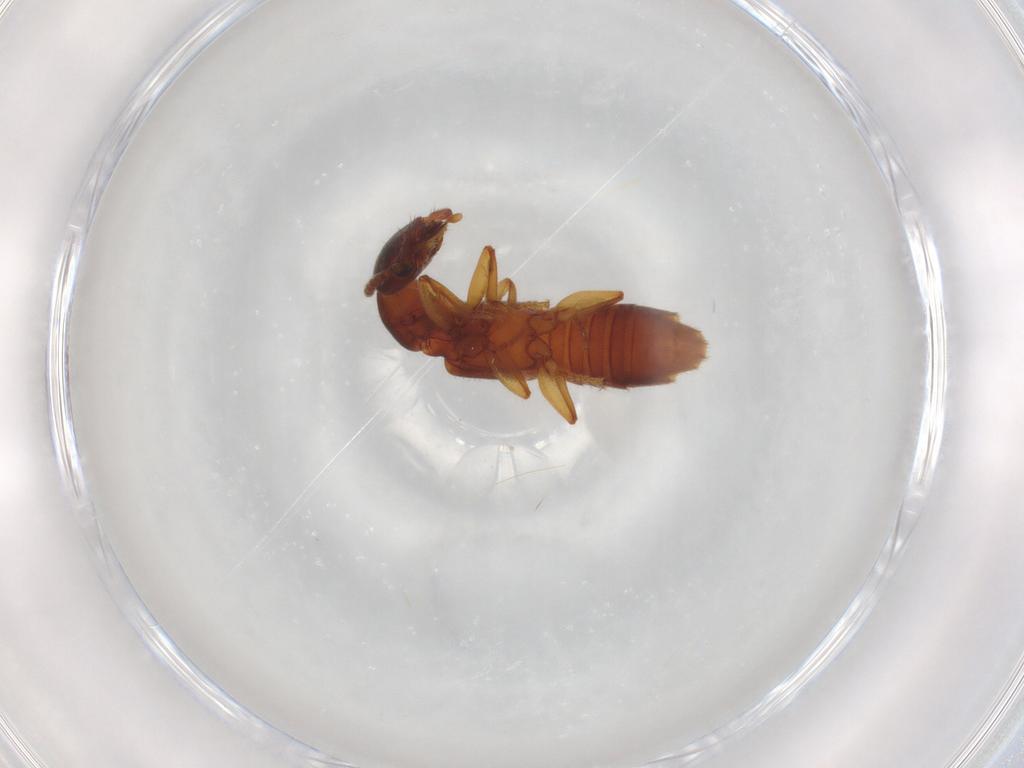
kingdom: Animalia
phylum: Arthropoda
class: Insecta
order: Coleoptera
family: Staphylinidae
